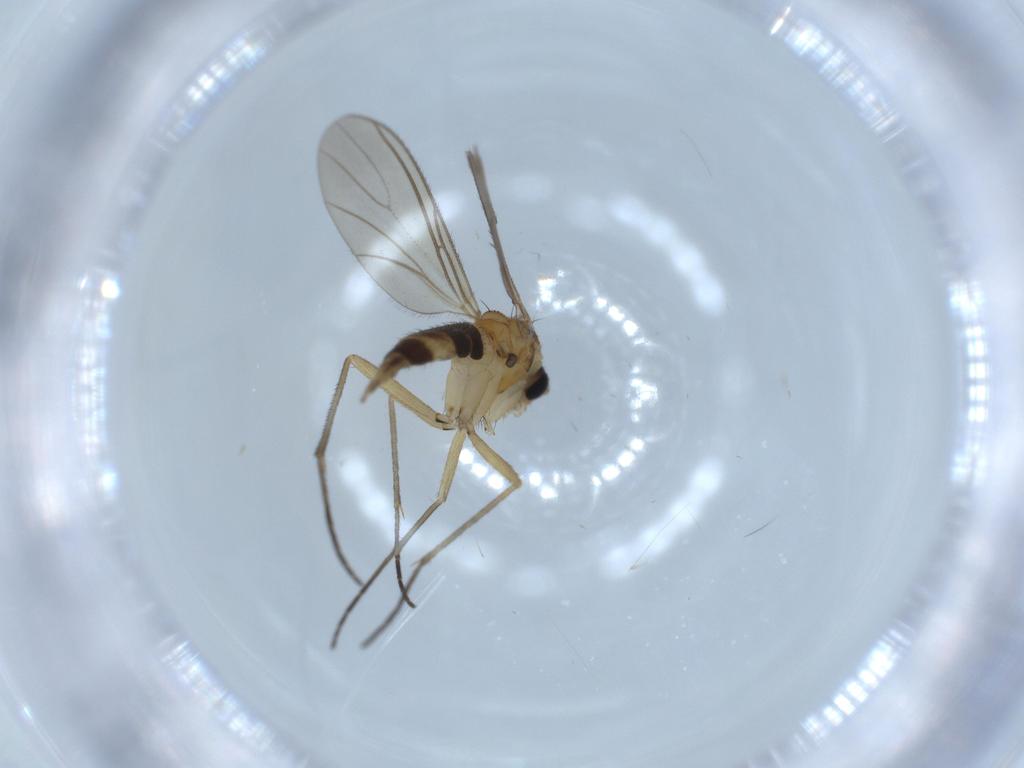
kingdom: Animalia
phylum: Arthropoda
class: Insecta
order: Diptera
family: Sciaridae
